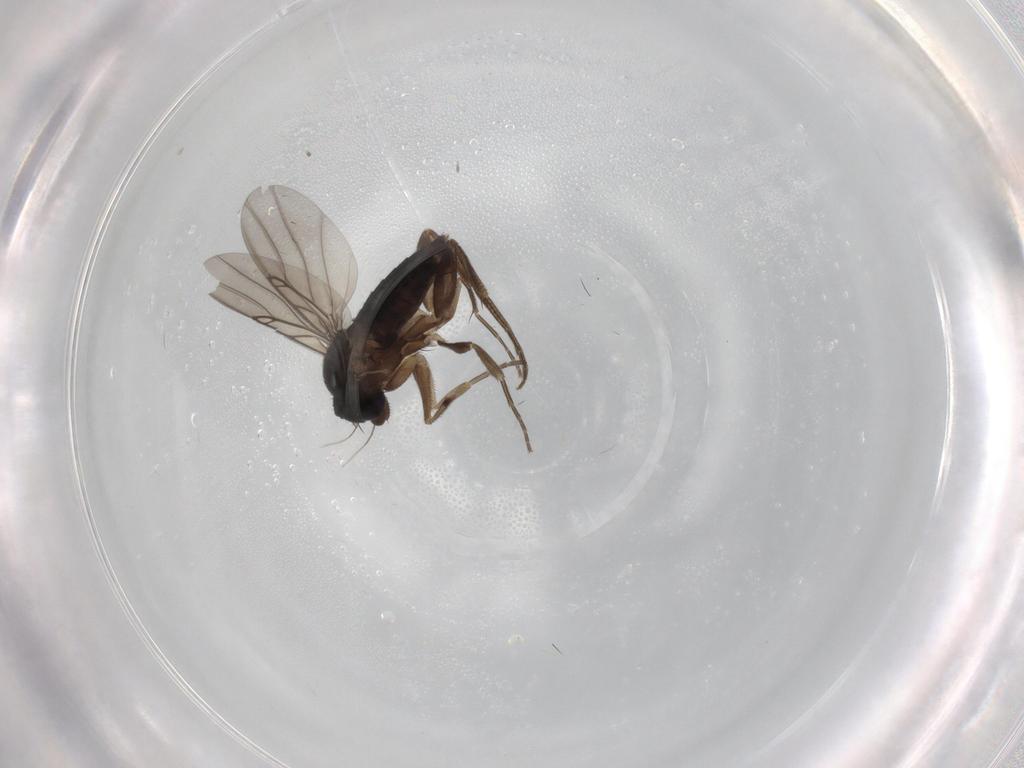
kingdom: Animalia
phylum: Arthropoda
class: Insecta
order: Diptera
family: Phoridae
